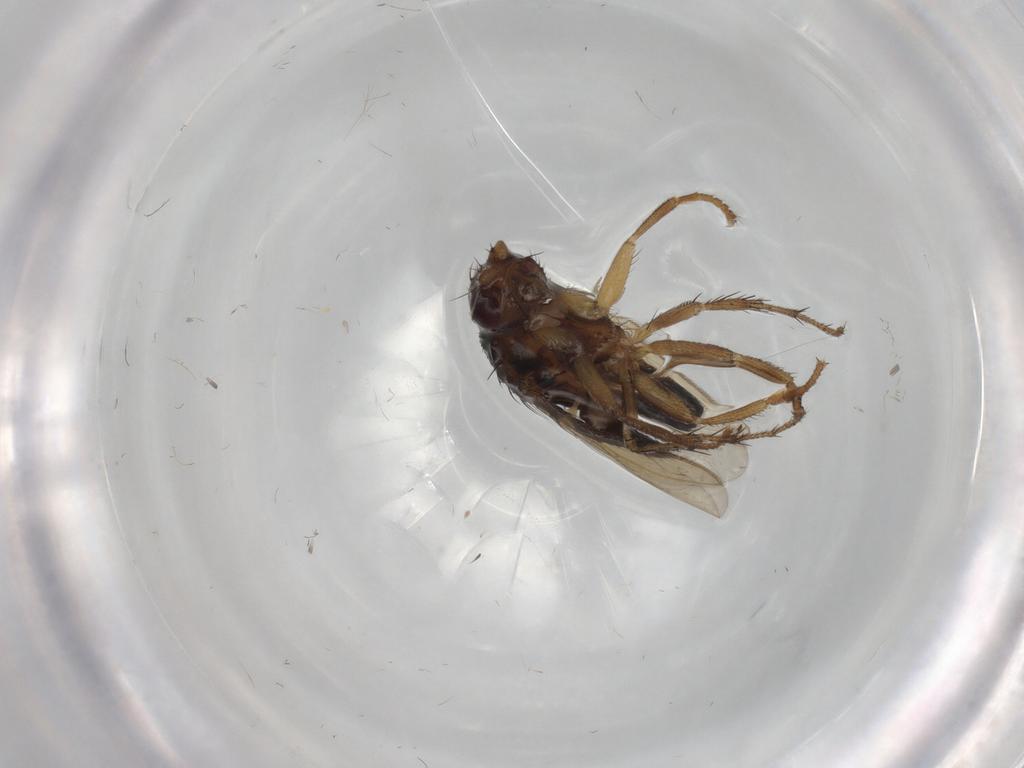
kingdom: Animalia
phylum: Arthropoda
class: Insecta
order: Diptera
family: Sphaeroceridae
